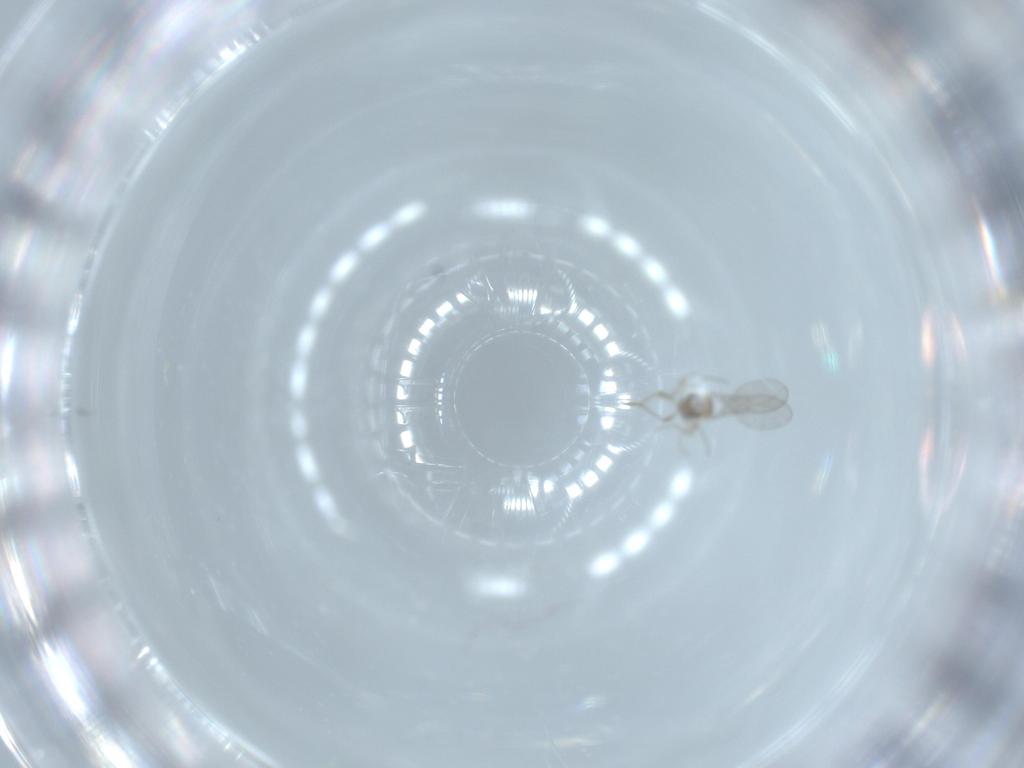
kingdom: Animalia
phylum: Arthropoda
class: Insecta
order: Diptera
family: Cecidomyiidae
